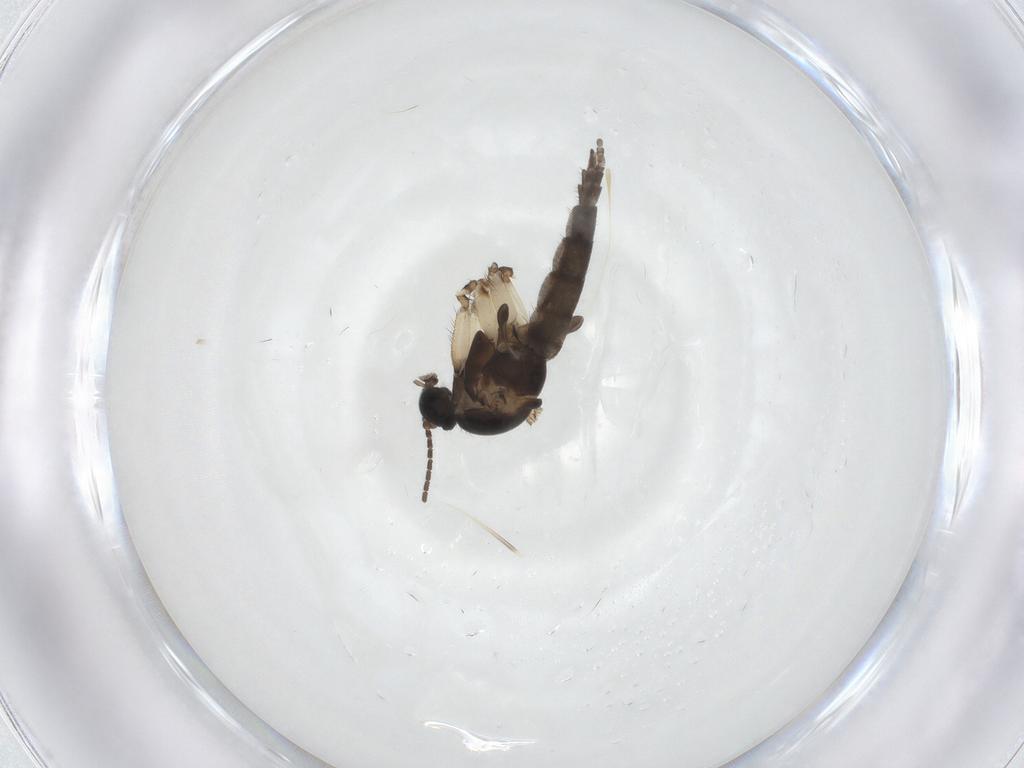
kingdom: Animalia
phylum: Arthropoda
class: Insecta
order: Diptera
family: Sciaridae
